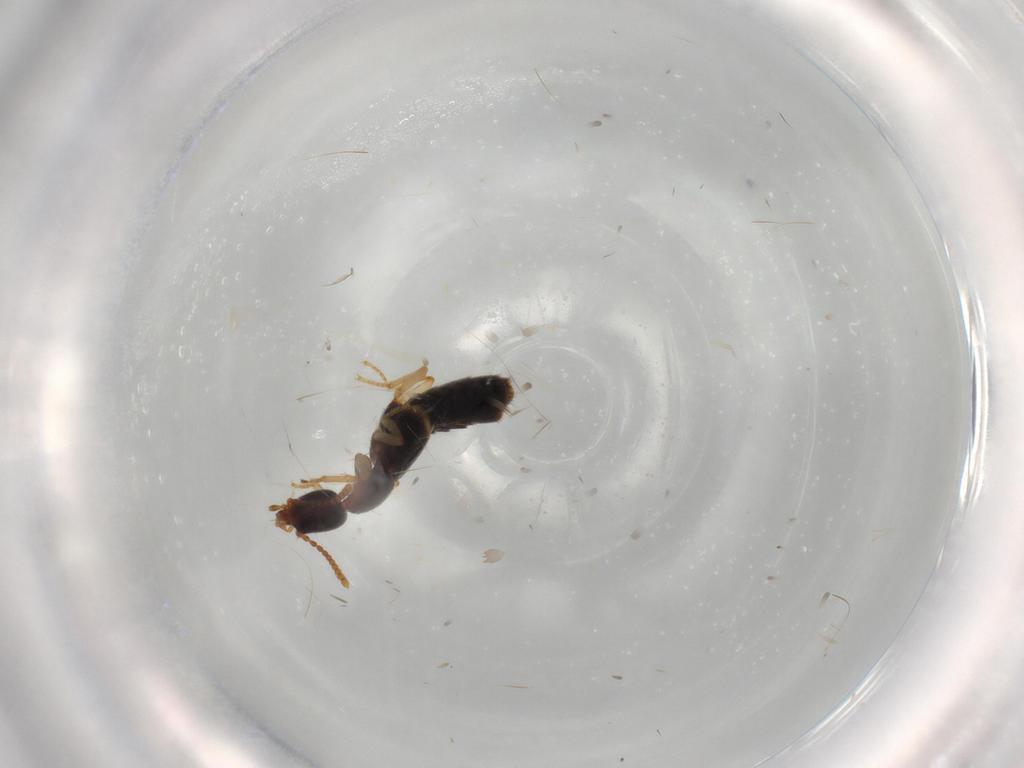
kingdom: Animalia
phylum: Arthropoda
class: Insecta
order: Coleoptera
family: Staphylinidae
